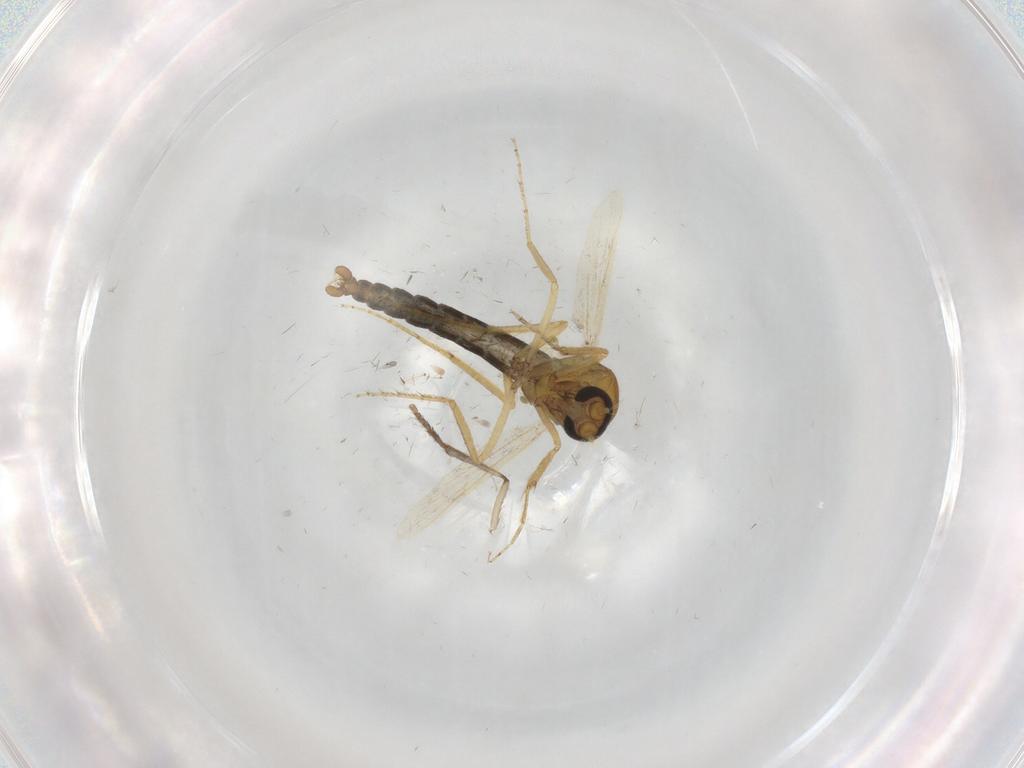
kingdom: Animalia
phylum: Arthropoda
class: Insecta
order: Diptera
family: Ceratopogonidae
